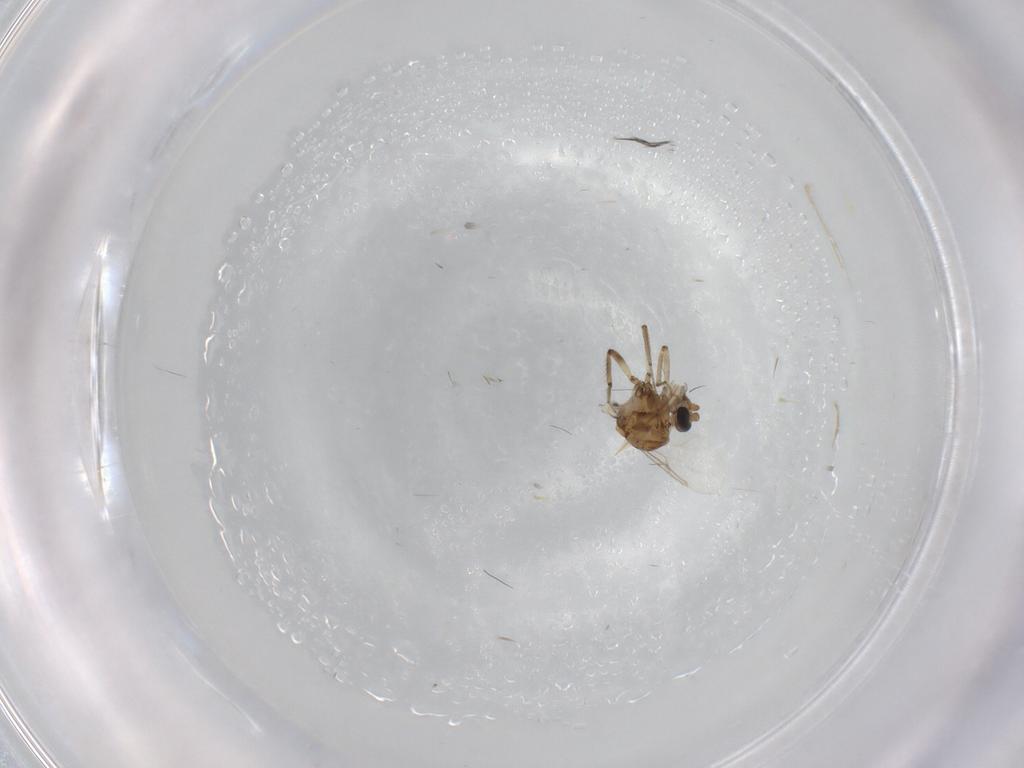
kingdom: Animalia
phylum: Arthropoda
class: Insecta
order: Diptera
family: Ceratopogonidae
